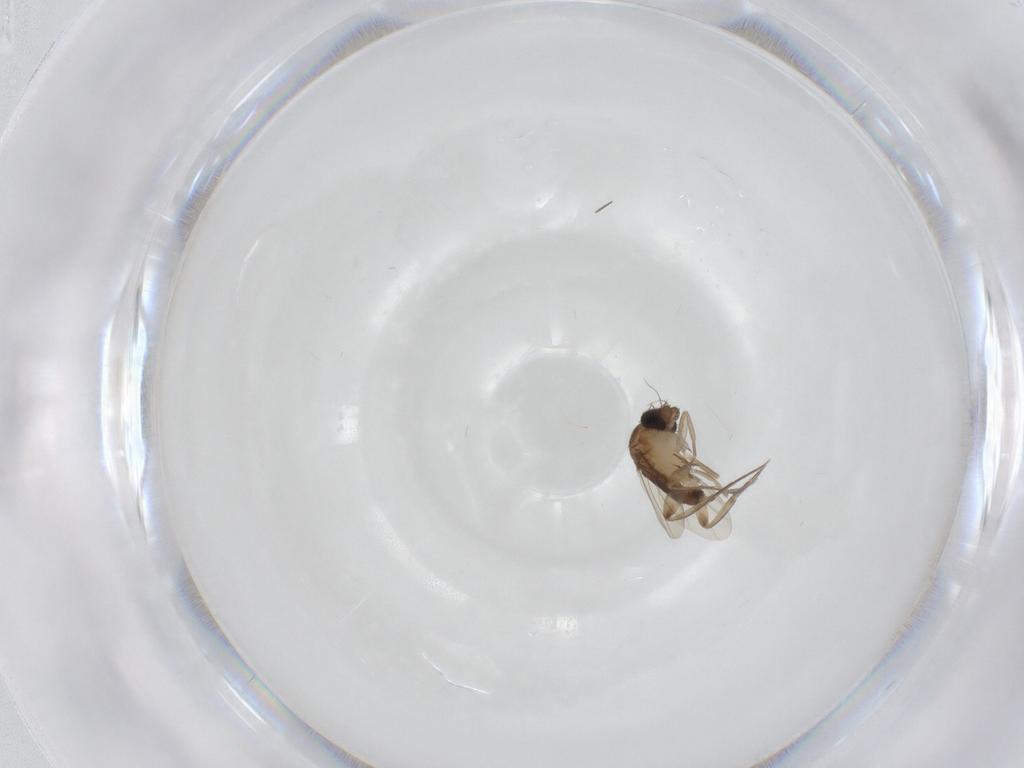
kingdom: Animalia
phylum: Arthropoda
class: Insecta
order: Diptera
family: Phoridae
